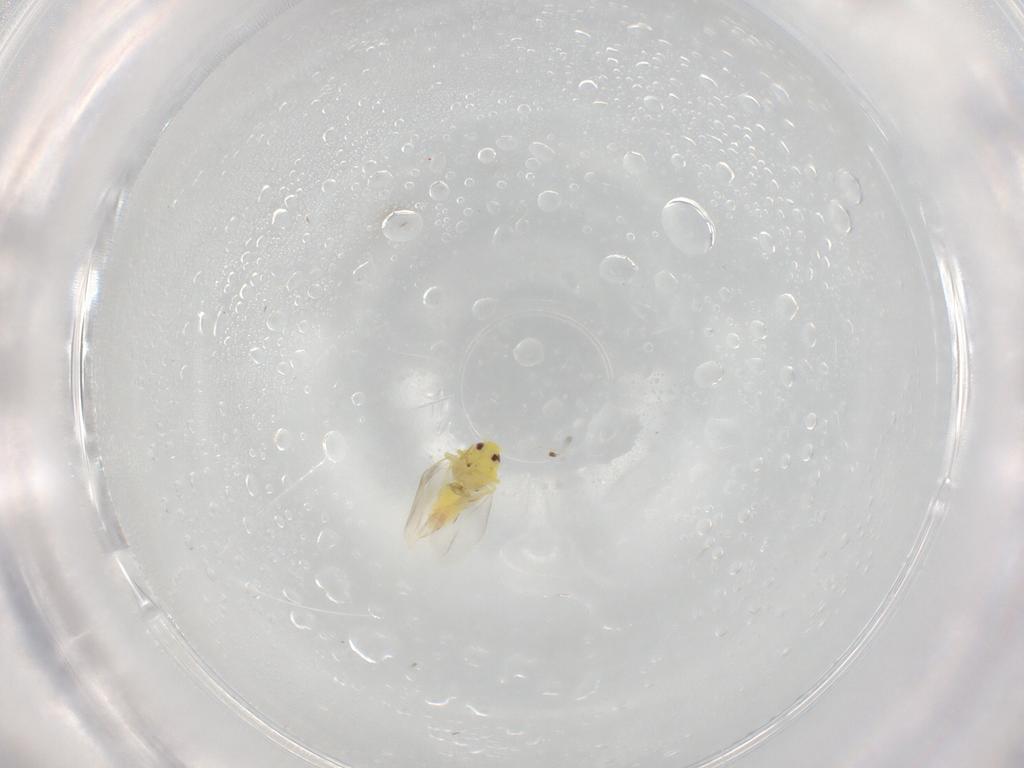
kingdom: Animalia
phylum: Arthropoda
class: Insecta
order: Hemiptera
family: Aleyrodidae
